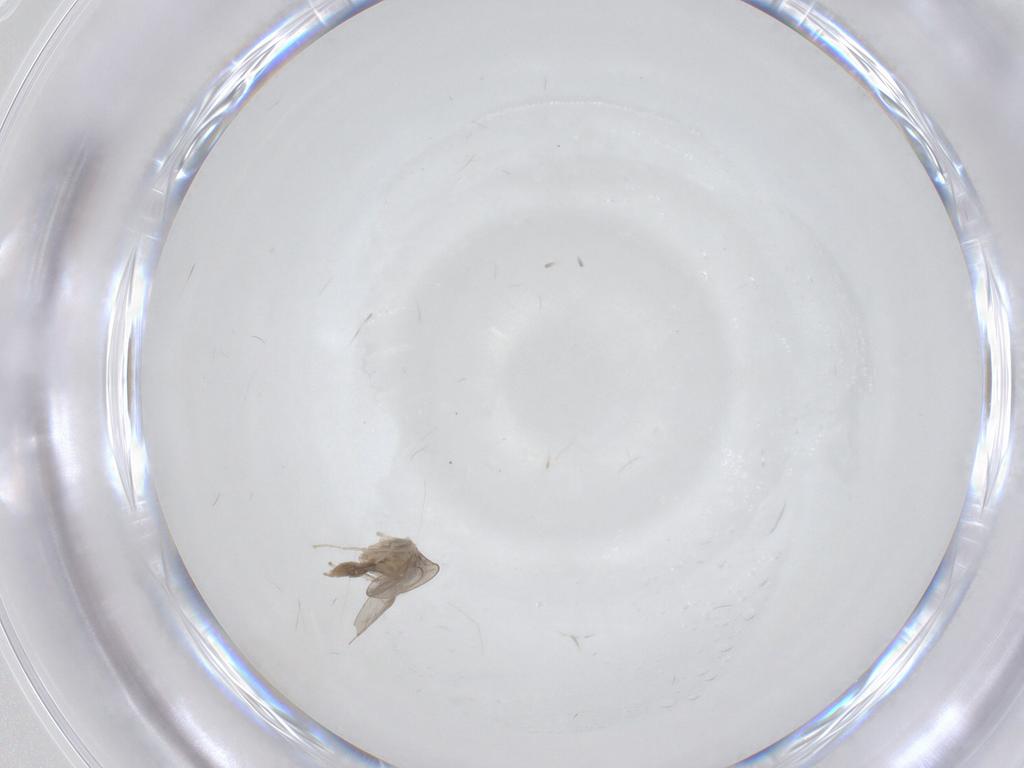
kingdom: Animalia
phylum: Arthropoda
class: Insecta
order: Diptera
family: Cecidomyiidae
